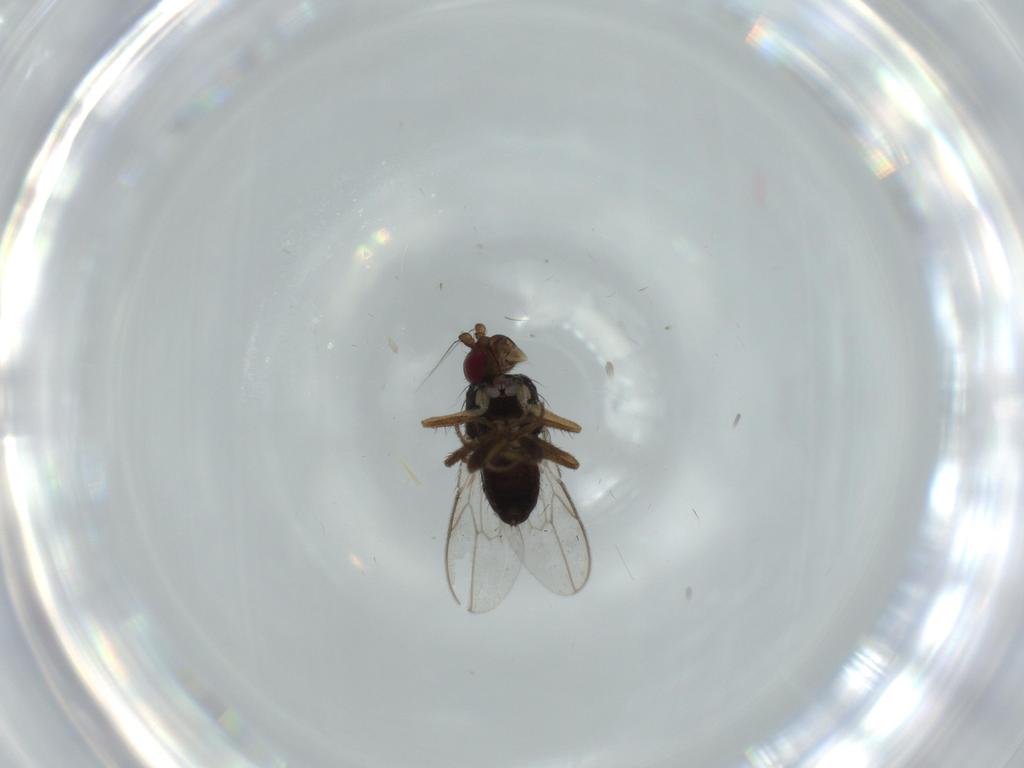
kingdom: Animalia
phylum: Arthropoda
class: Insecta
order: Diptera
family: Sphaeroceridae
